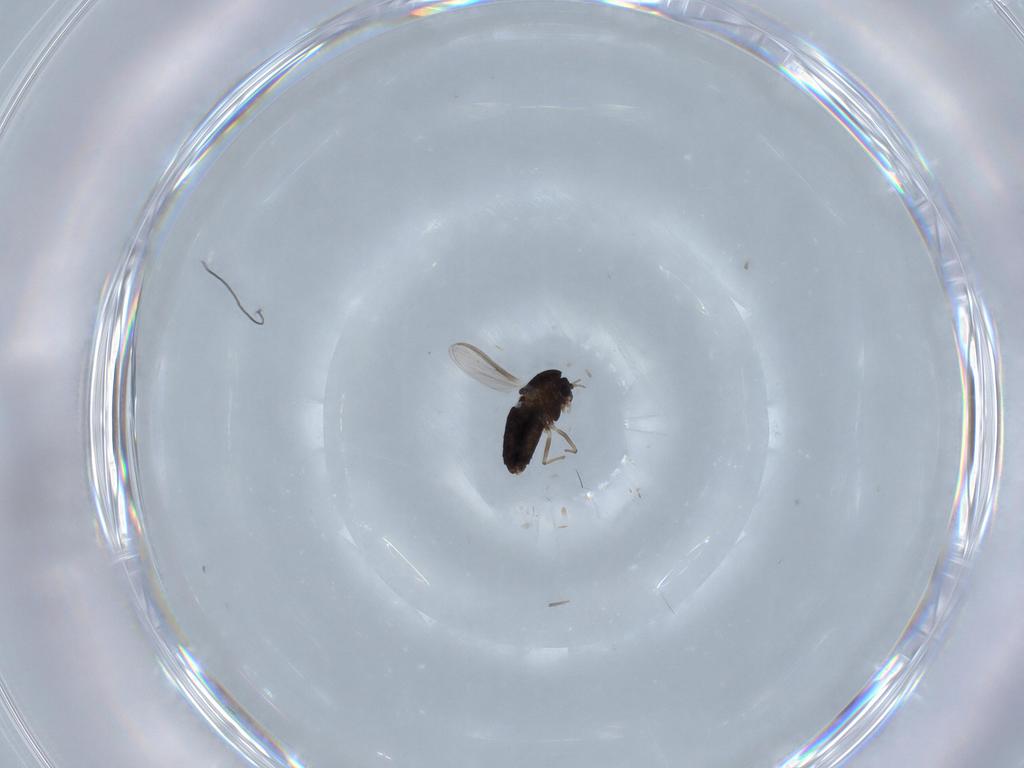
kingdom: Animalia
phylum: Arthropoda
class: Insecta
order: Diptera
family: Chironomidae
